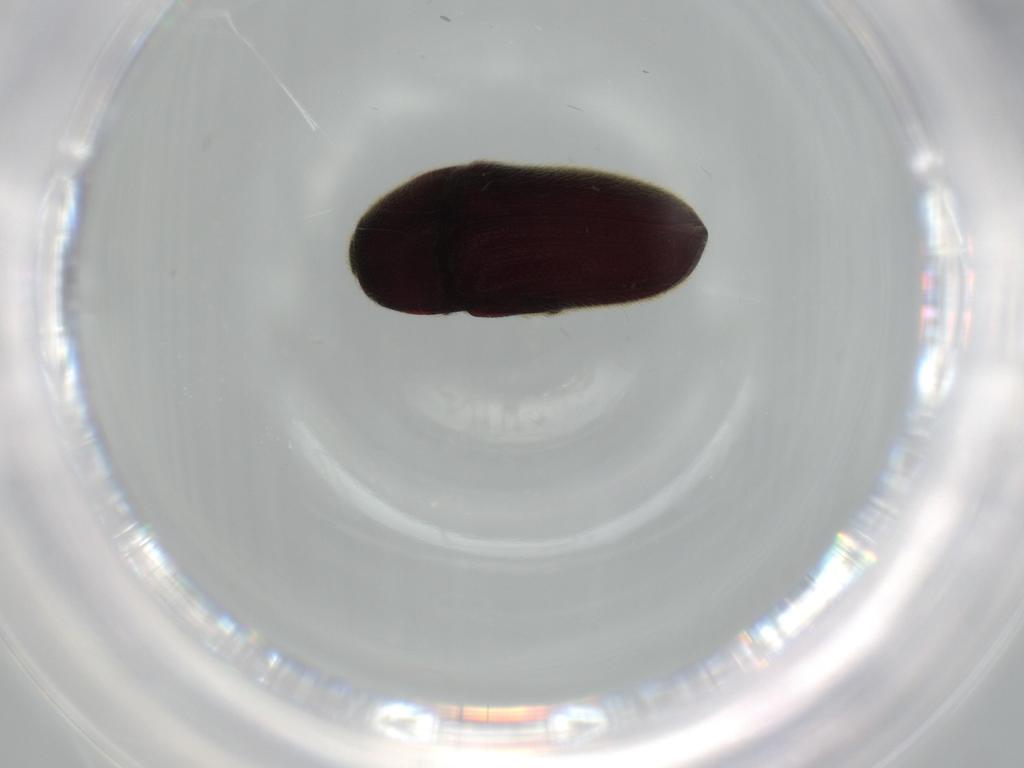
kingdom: Animalia
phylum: Arthropoda
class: Insecta
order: Coleoptera
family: Throscidae
